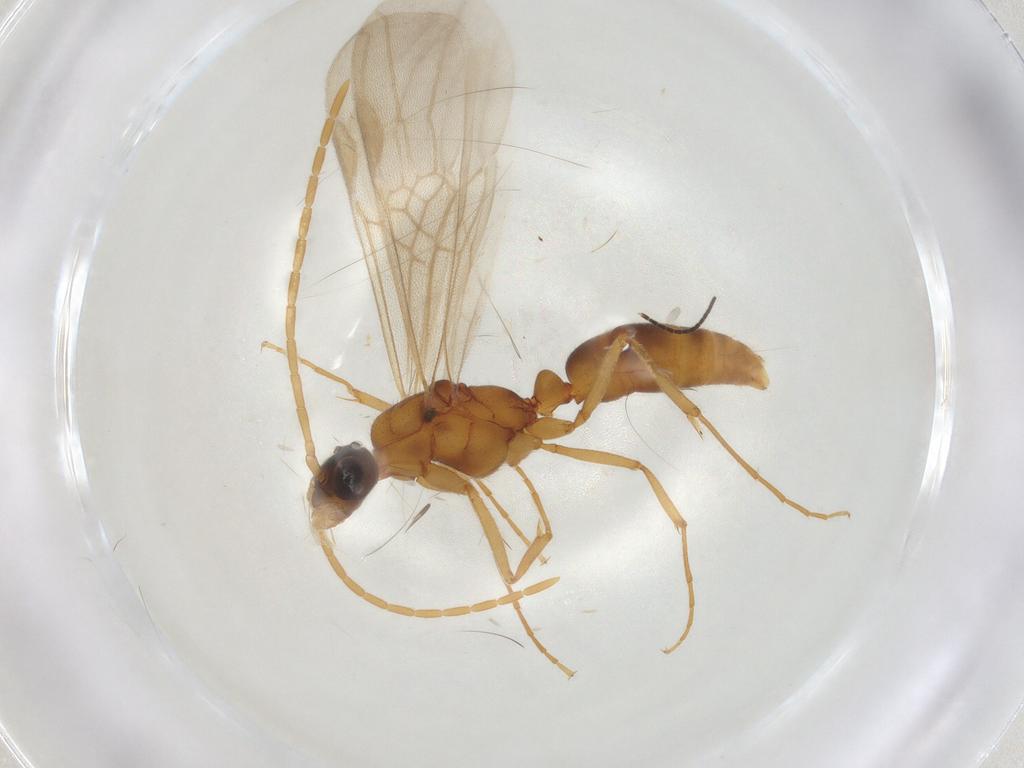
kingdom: Animalia
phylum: Arthropoda
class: Insecta
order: Hymenoptera
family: Formicidae
